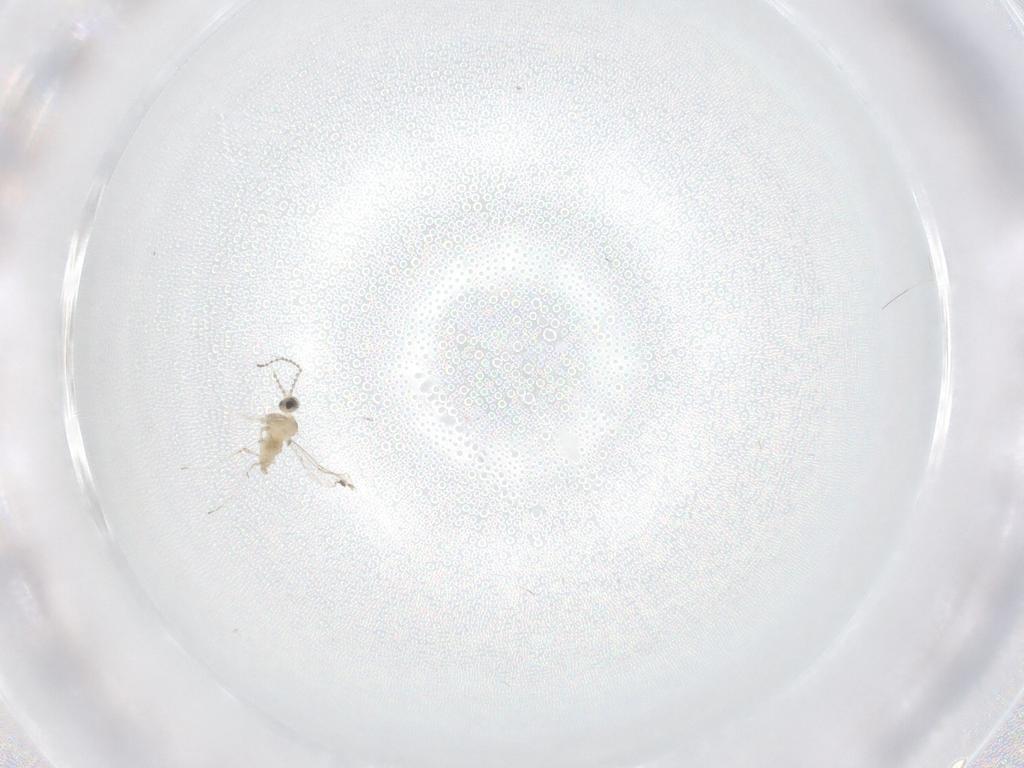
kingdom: Animalia
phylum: Arthropoda
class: Insecta
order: Diptera
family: Cecidomyiidae
